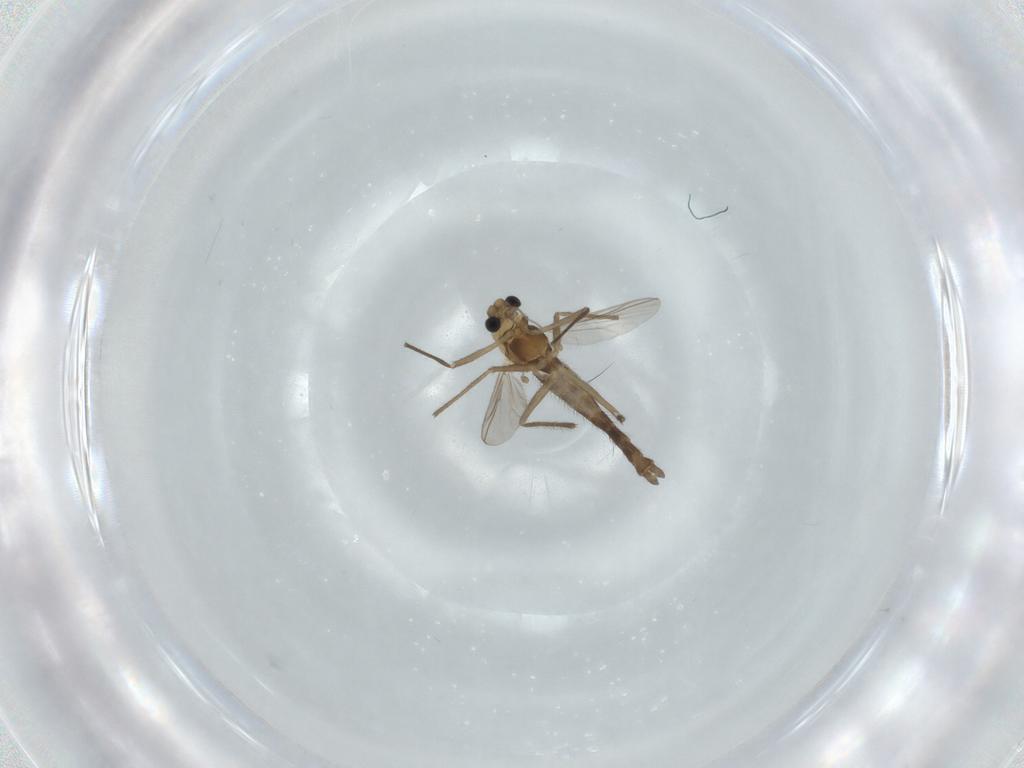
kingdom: Animalia
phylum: Arthropoda
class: Insecta
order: Diptera
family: Chironomidae
